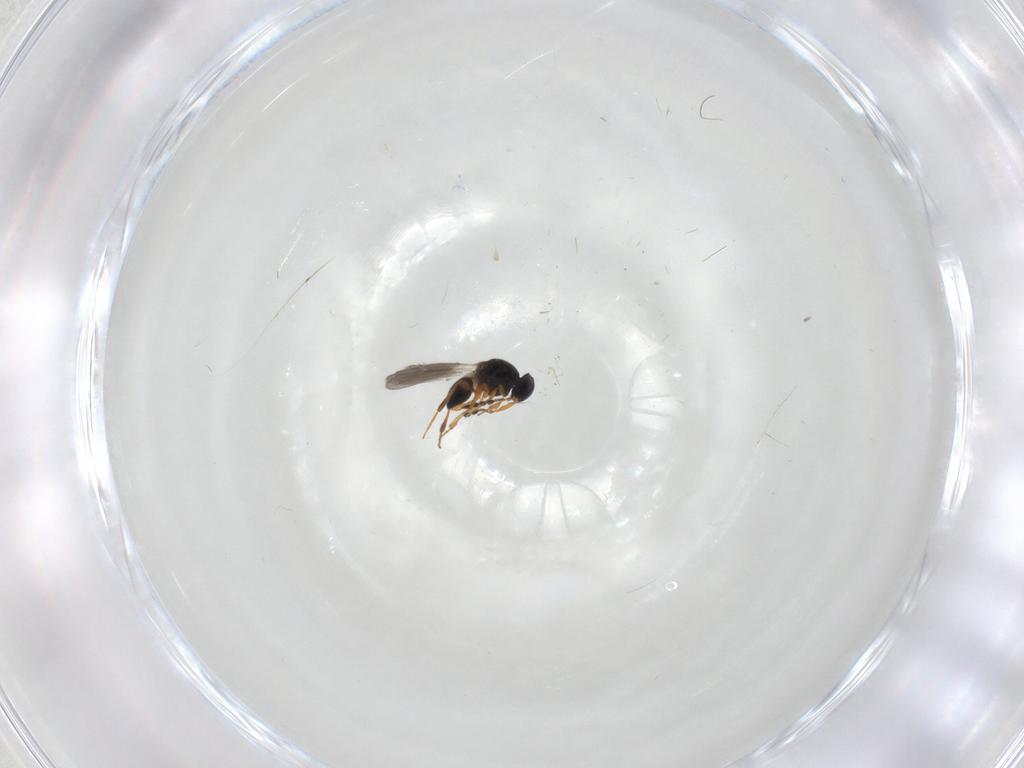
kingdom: Animalia
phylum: Arthropoda
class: Insecta
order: Hymenoptera
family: Platygastridae
